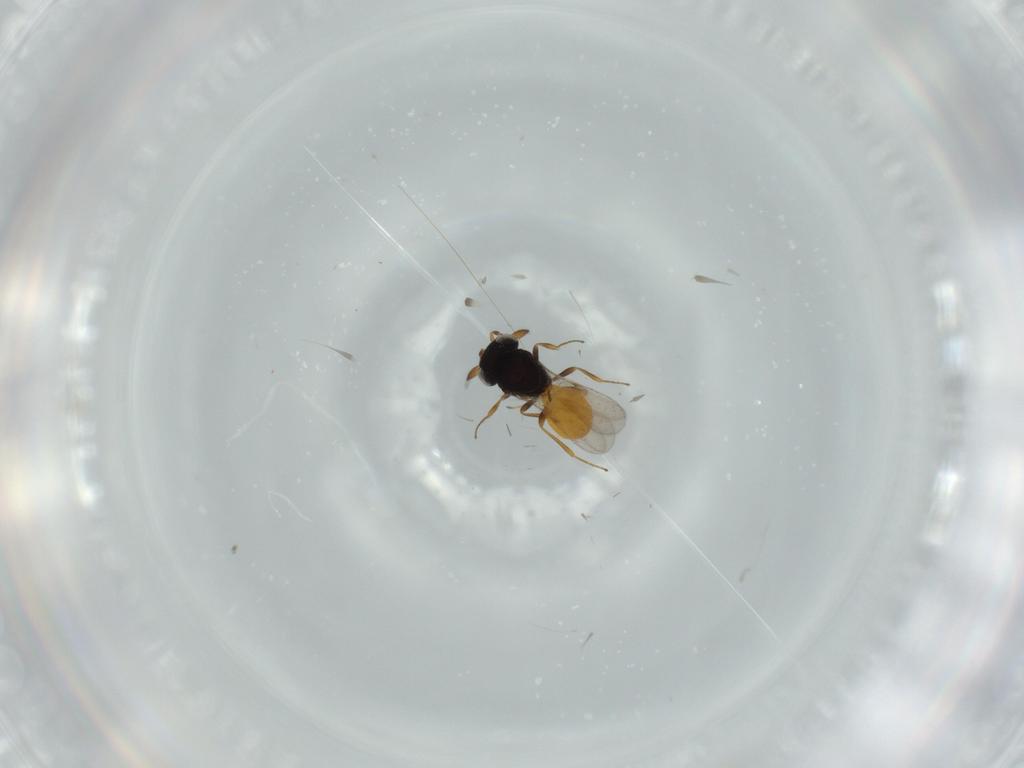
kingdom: Animalia
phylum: Arthropoda
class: Insecta
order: Hymenoptera
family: Scelionidae
